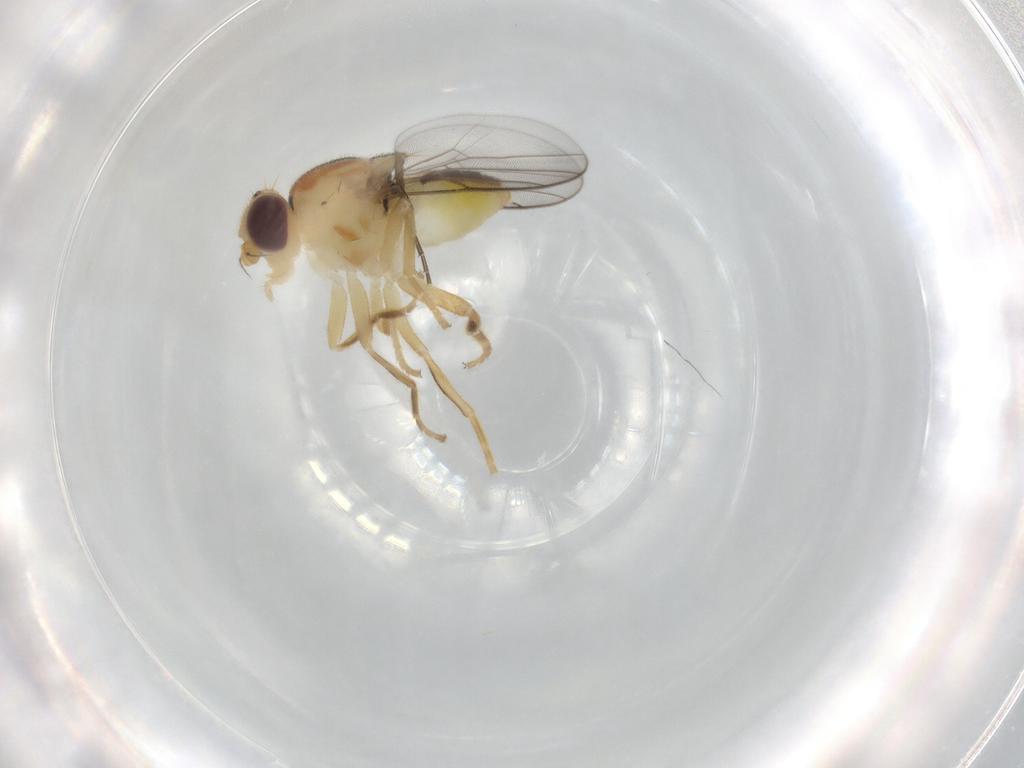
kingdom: Animalia
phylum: Arthropoda
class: Insecta
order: Diptera
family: Chloropidae
